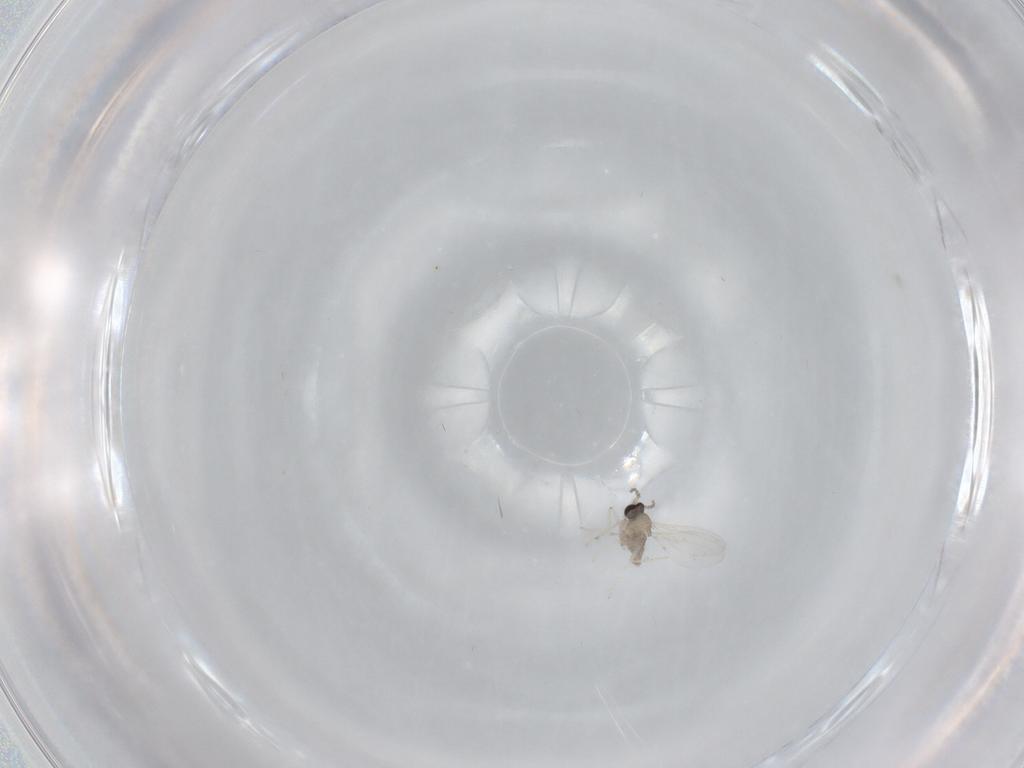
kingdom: Animalia
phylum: Arthropoda
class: Insecta
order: Diptera
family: Cecidomyiidae
